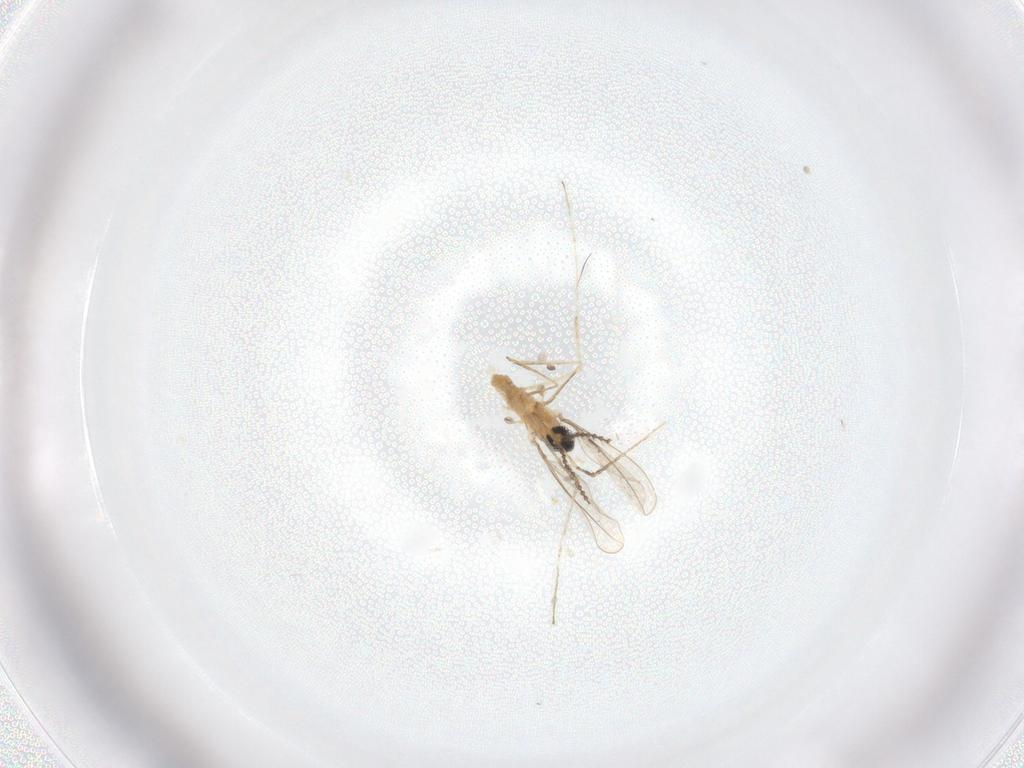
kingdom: Animalia
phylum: Arthropoda
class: Insecta
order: Diptera
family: Cecidomyiidae
